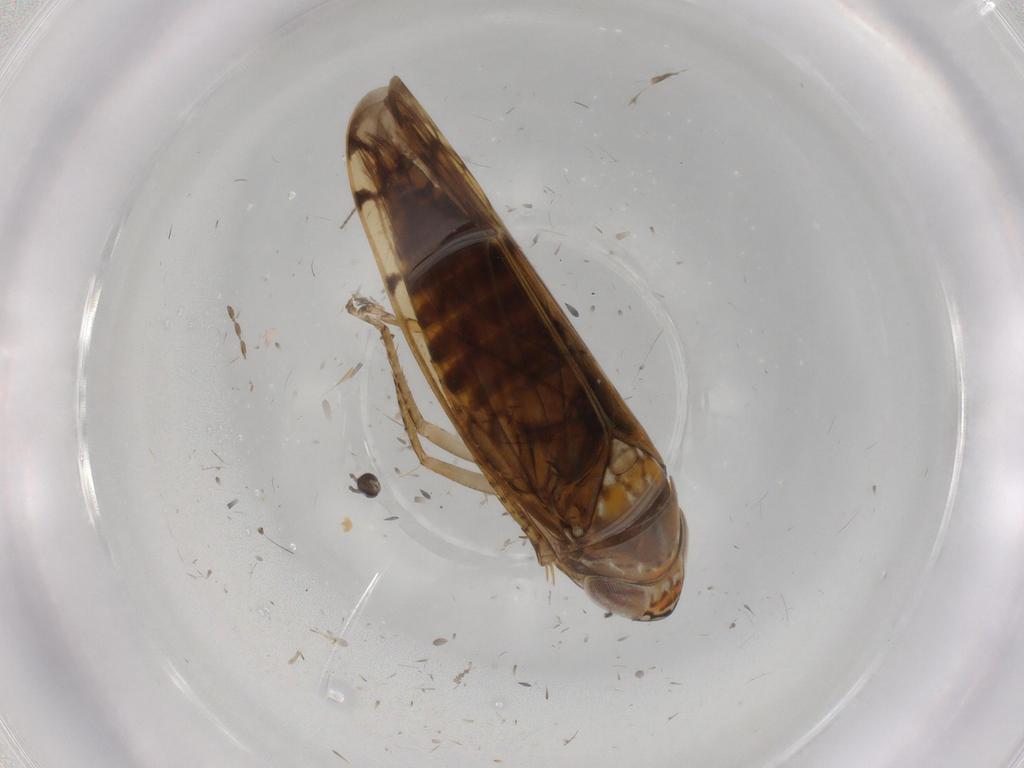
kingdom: Animalia
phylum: Arthropoda
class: Insecta
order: Hemiptera
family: Cicadellidae
